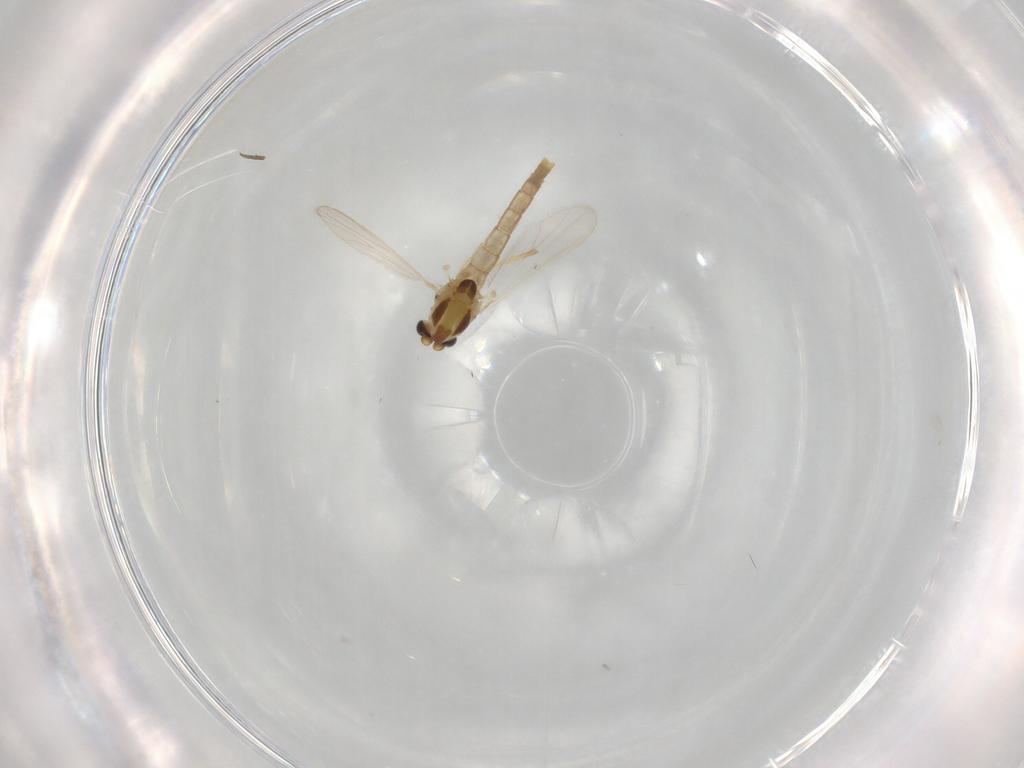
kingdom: Animalia
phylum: Arthropoda
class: Insecta
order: Diptera
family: Chironomidae
